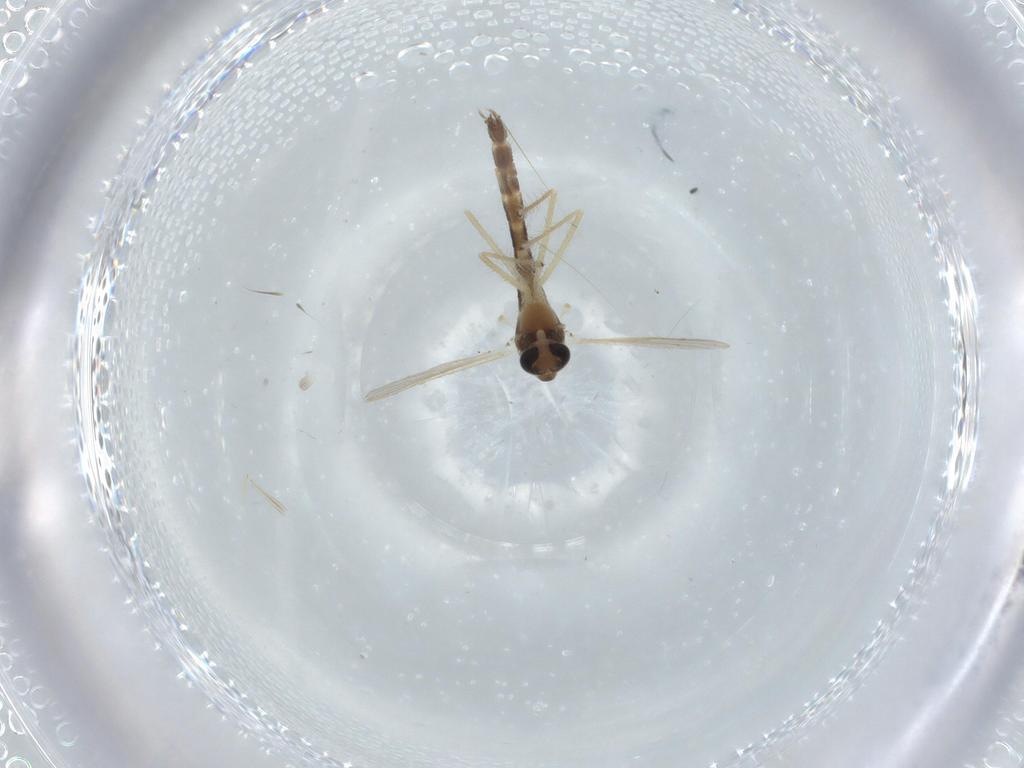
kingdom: Animalia
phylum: Arthropoda
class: Insecta
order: Diptera
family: Chironomidae
